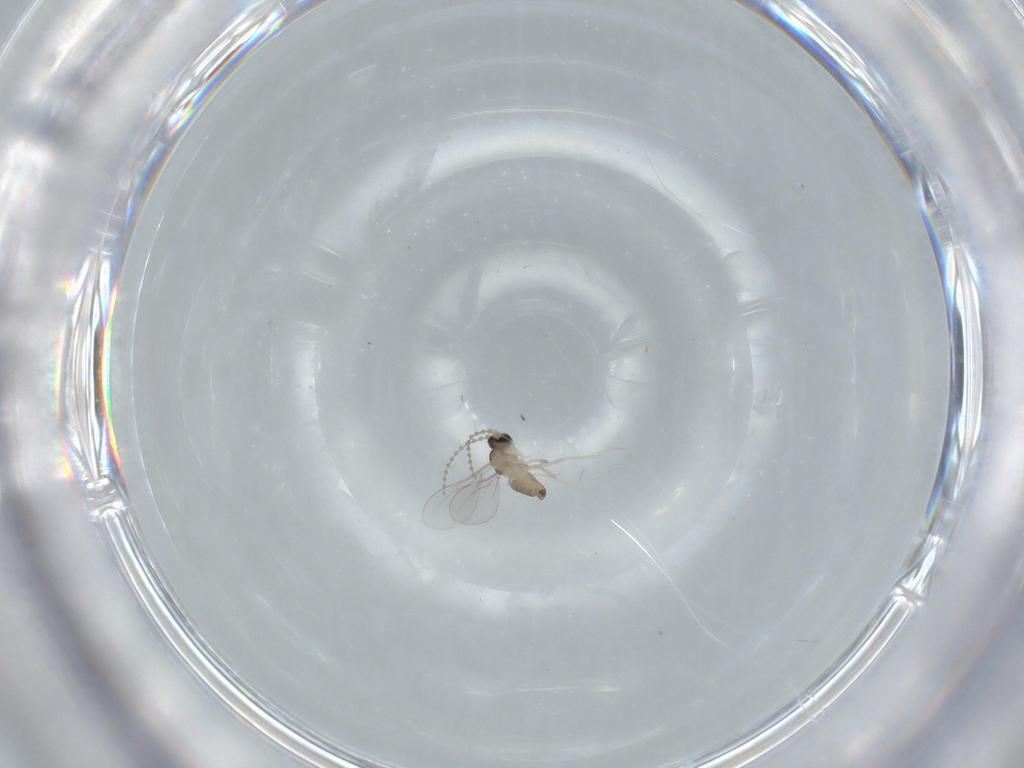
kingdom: Animalia
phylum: Arthropoda
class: Insecta
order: Diptera
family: Cecidomyiidae
